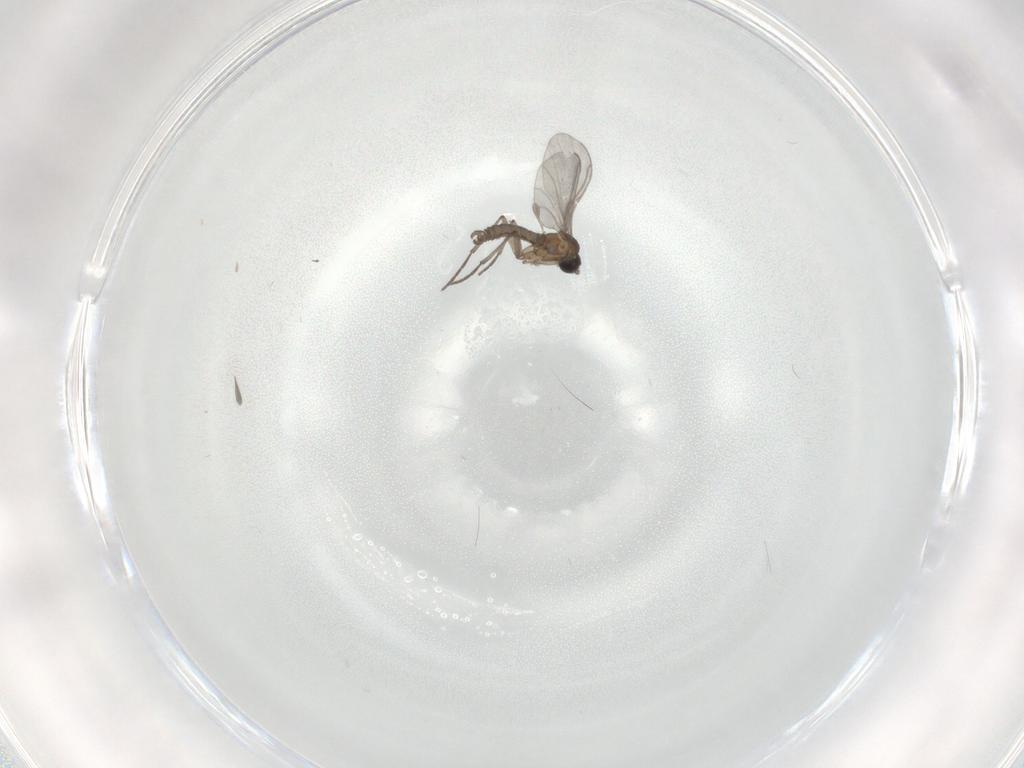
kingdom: Animalia
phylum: Arthropoda
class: Insecta
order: Diptera
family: Sciaridae
